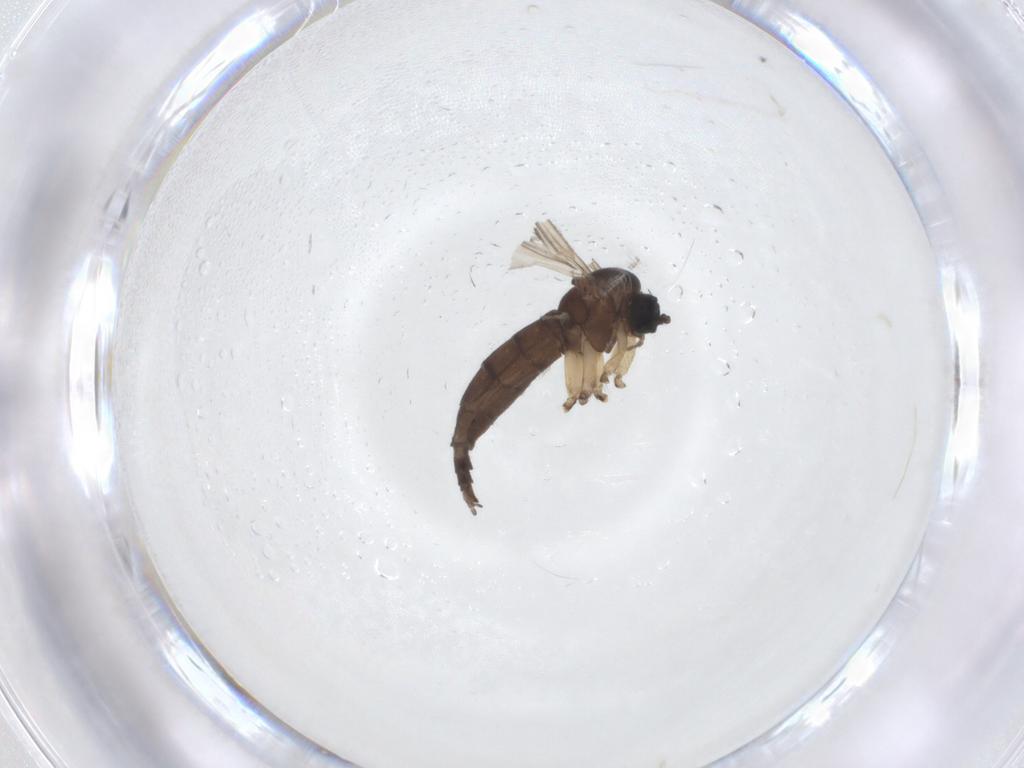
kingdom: Animalia
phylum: Arthropoda
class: Insecta
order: Diptera
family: Sciaridae
